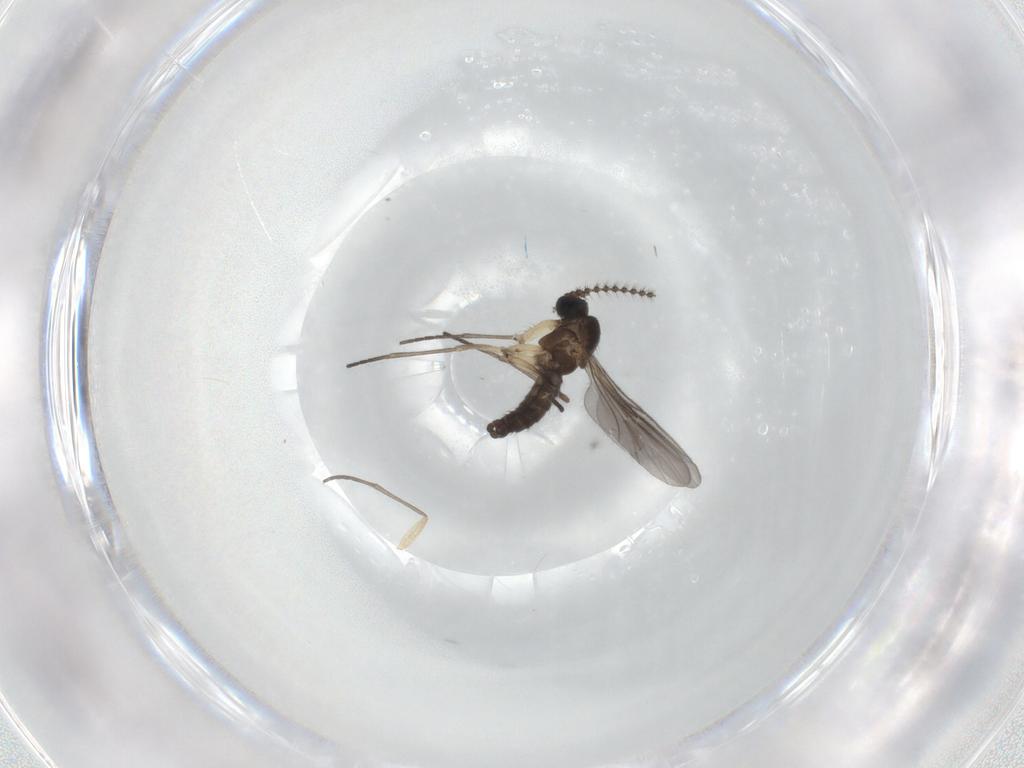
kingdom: Animalia
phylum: Arthropoda
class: Insecta
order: Diptera
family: Sciaridae
